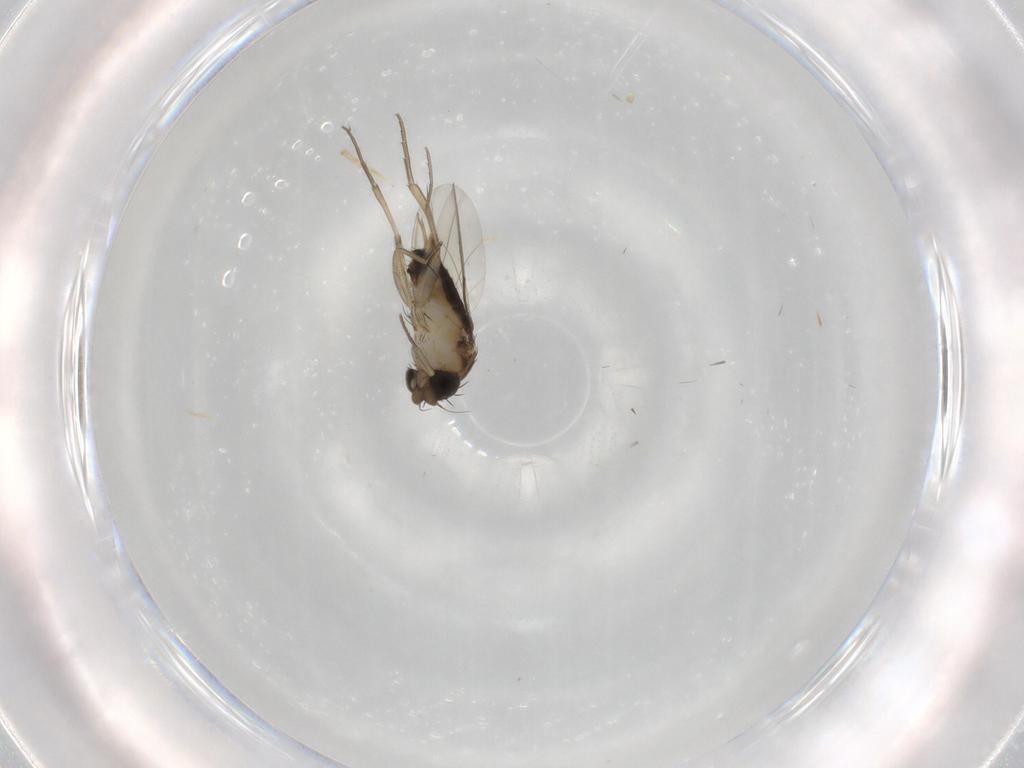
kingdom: Animalia
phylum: Arthropoda
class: Insecta
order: Diptera
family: Phoridae
